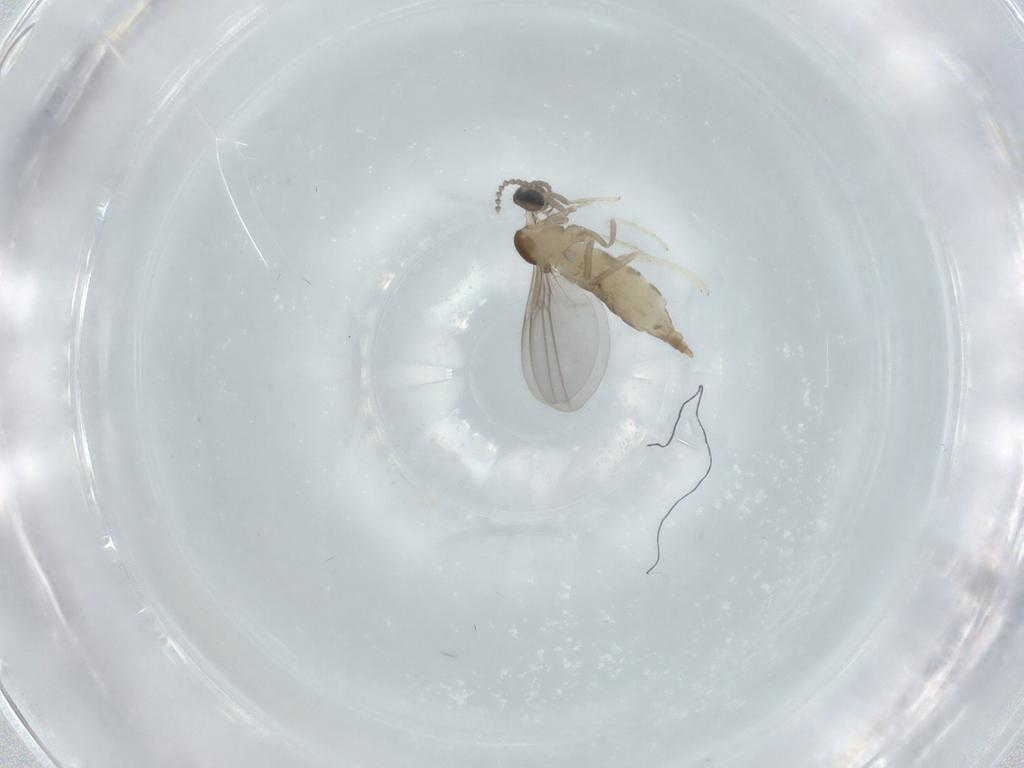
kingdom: Animalia
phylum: Arthropoda
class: Insecta
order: Diptera
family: Cecidomyiidae
